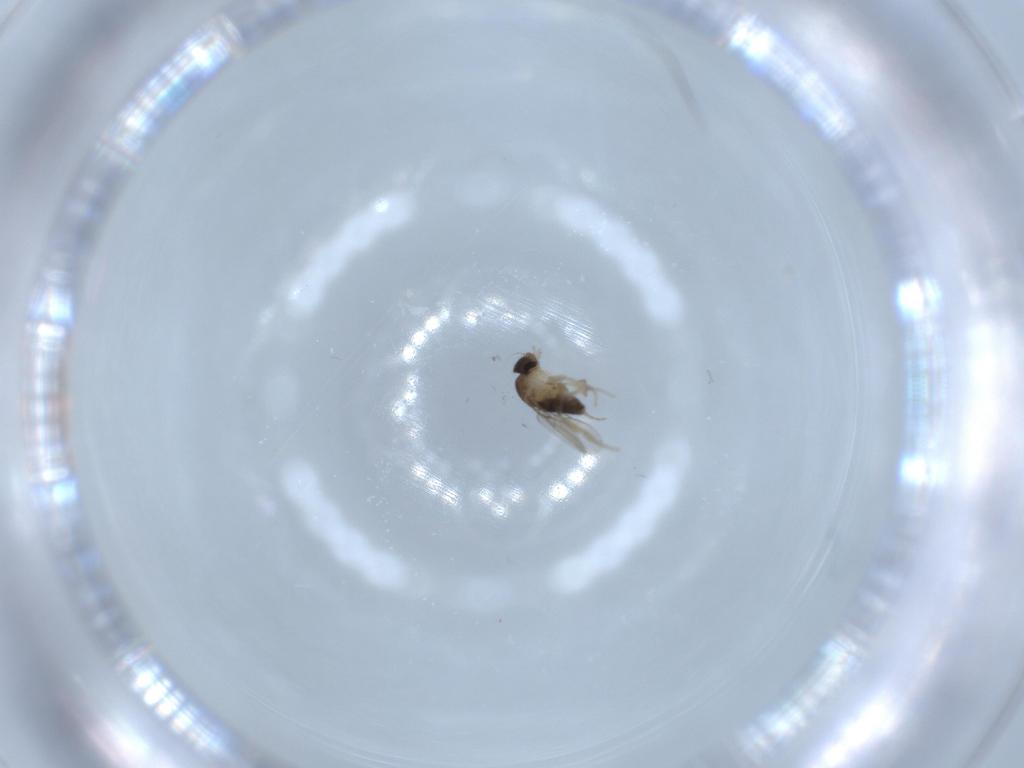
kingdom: Animalia
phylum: Arthropoda
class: Insecta
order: Diptera
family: Phoridae
